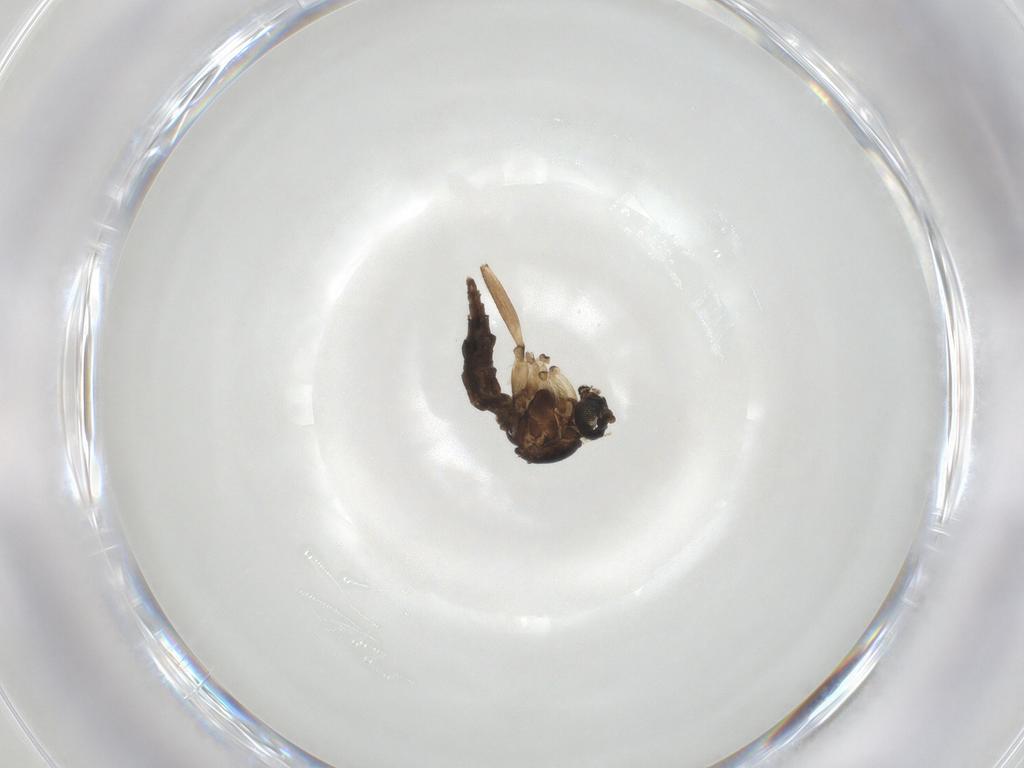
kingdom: Animalia
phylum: Arthropoda
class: Insecta
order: Diptera
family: Sciaridae
